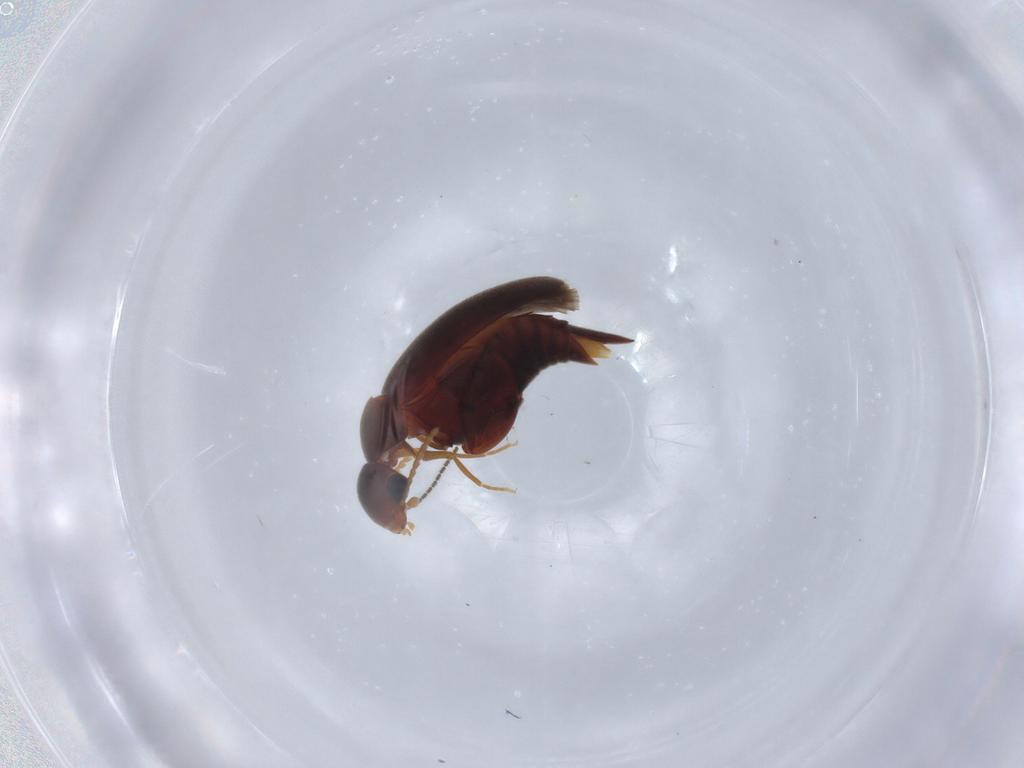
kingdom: Animalia
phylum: Arthropoda
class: Insecta
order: Coleoptera
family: Mordellidae
